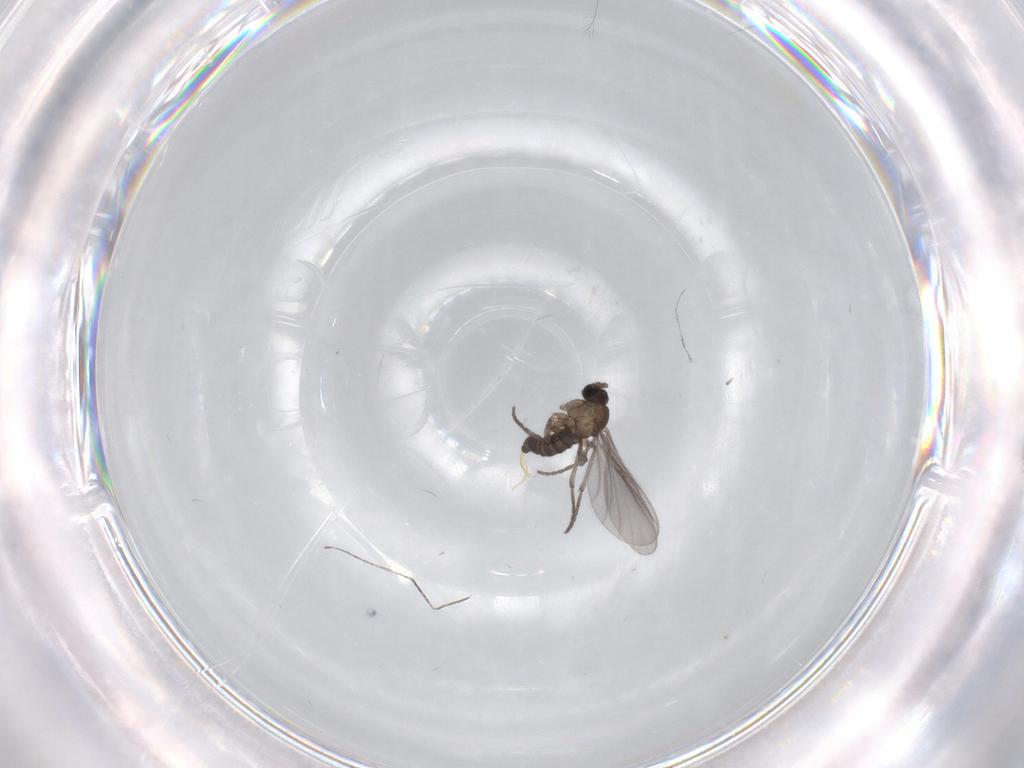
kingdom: Animalia
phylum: Arthropoda
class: Insecta
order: Diptera
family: Sciaridae
